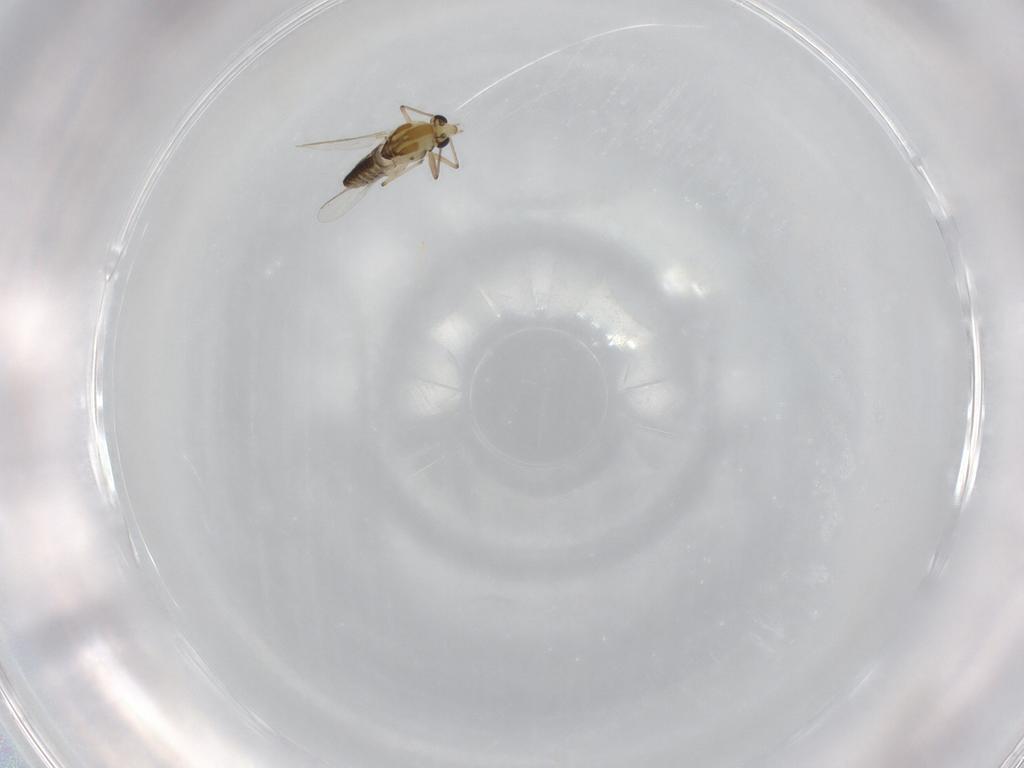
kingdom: Animalia
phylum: Arthropoda
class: Insecta
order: Diptera
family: Chironomidae
